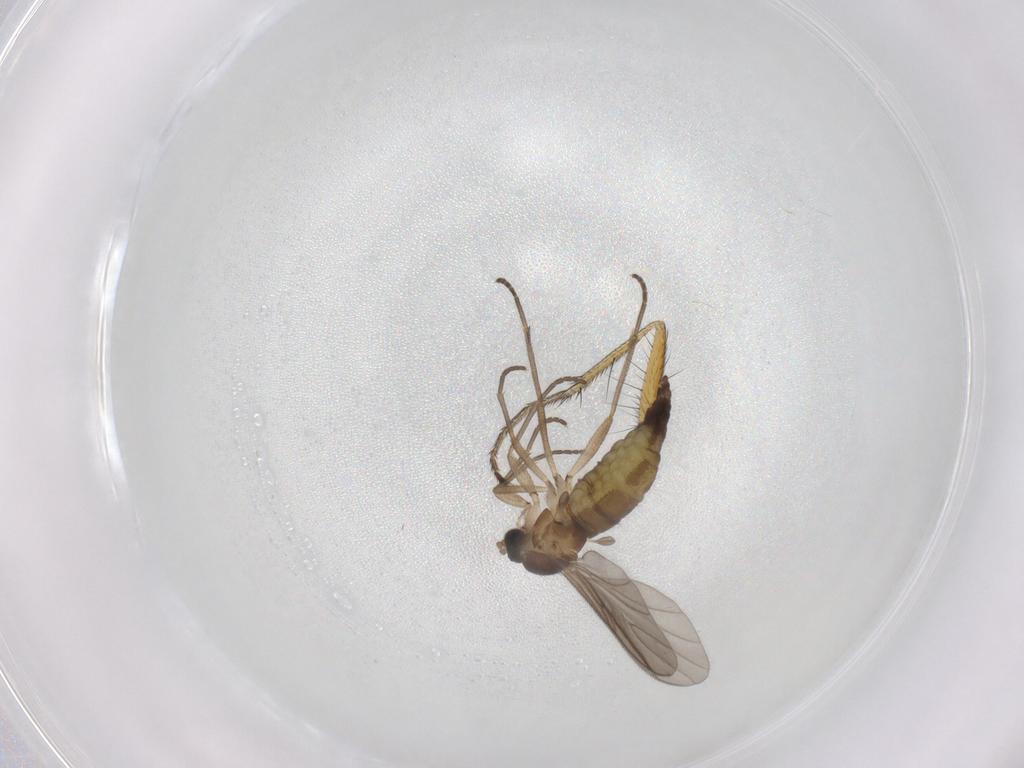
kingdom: Animalia
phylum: Arthropoda
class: Insecta
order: Diptera
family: Sciaridae
